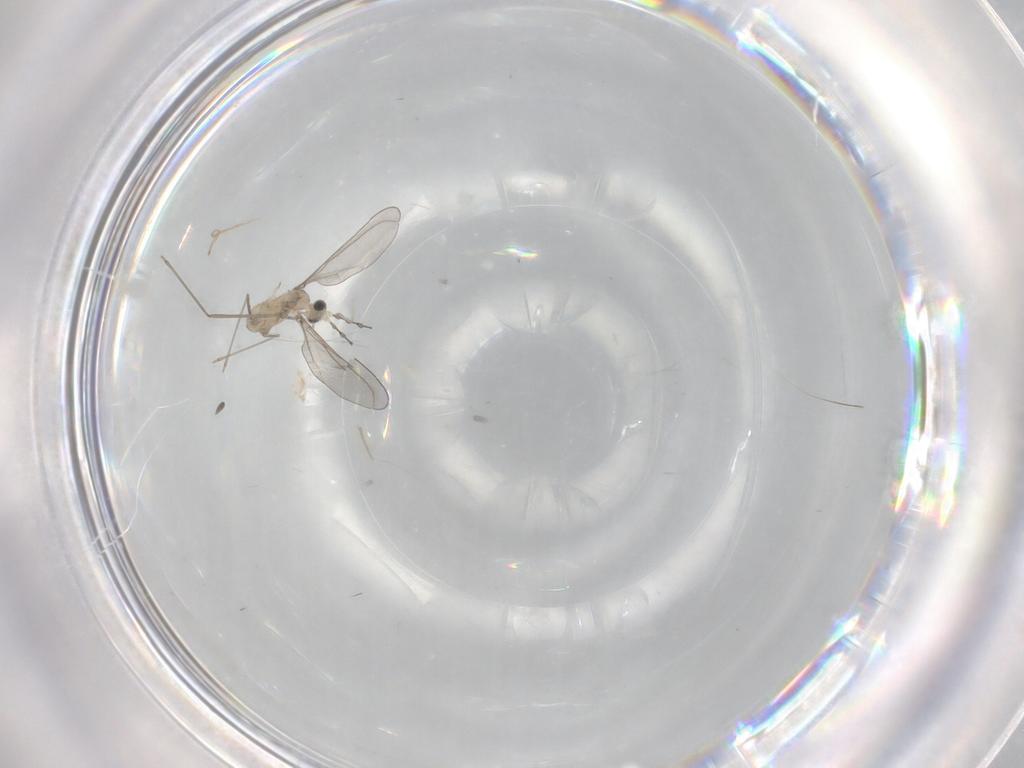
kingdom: Animalia
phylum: Arthropoda
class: Insecta
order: Diptera
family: Cecidomyiidae
